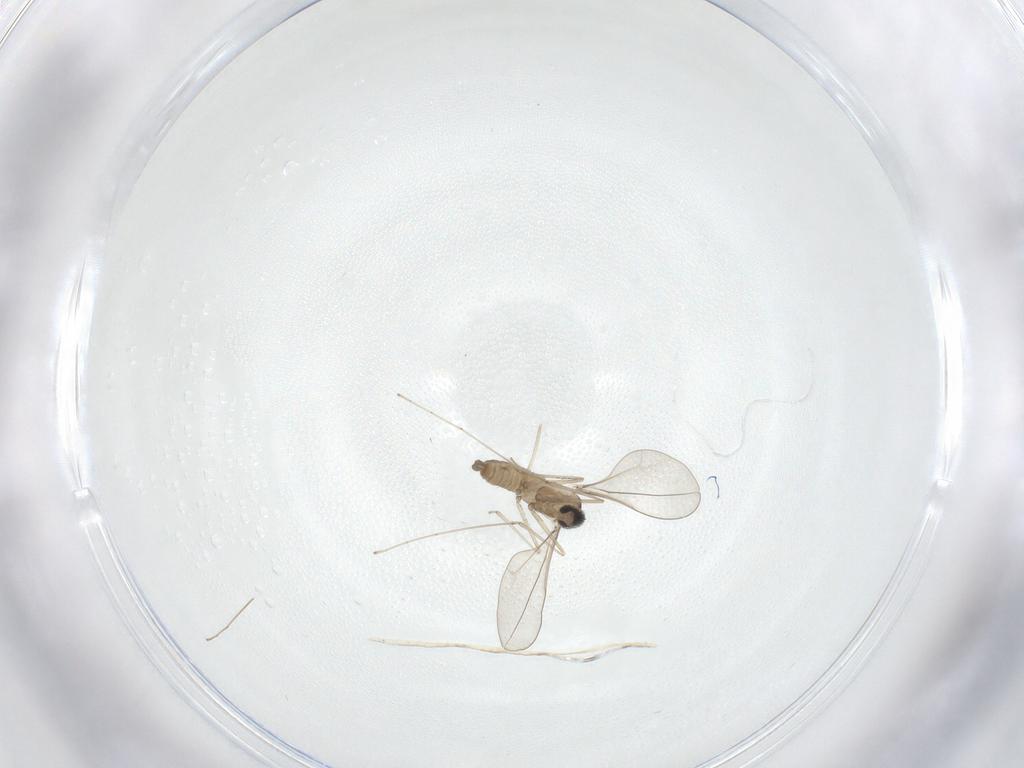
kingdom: Animalia
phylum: Arthropoda
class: Insecta
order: Diptera
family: Cecidomyiidae
